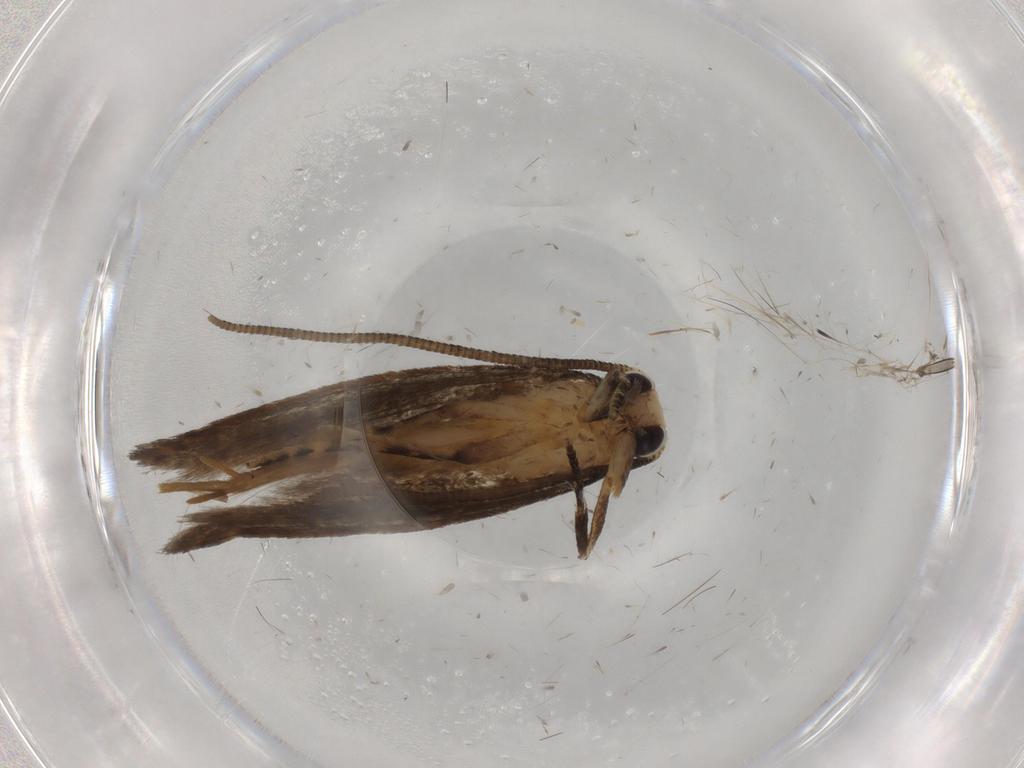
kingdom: Animalia
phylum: Arthropoda
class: Insecta
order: Lepidoptera
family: Tineidae
